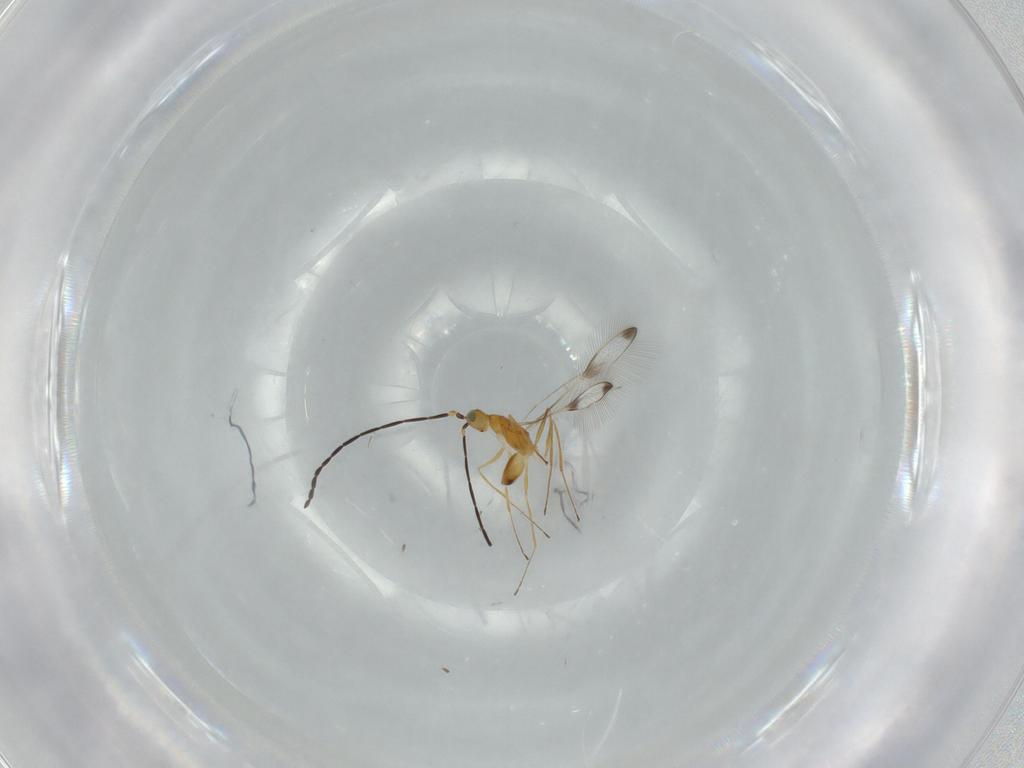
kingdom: Animalia
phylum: Arthropoda
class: Insecta
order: Hymenoptera
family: Mymaridae
